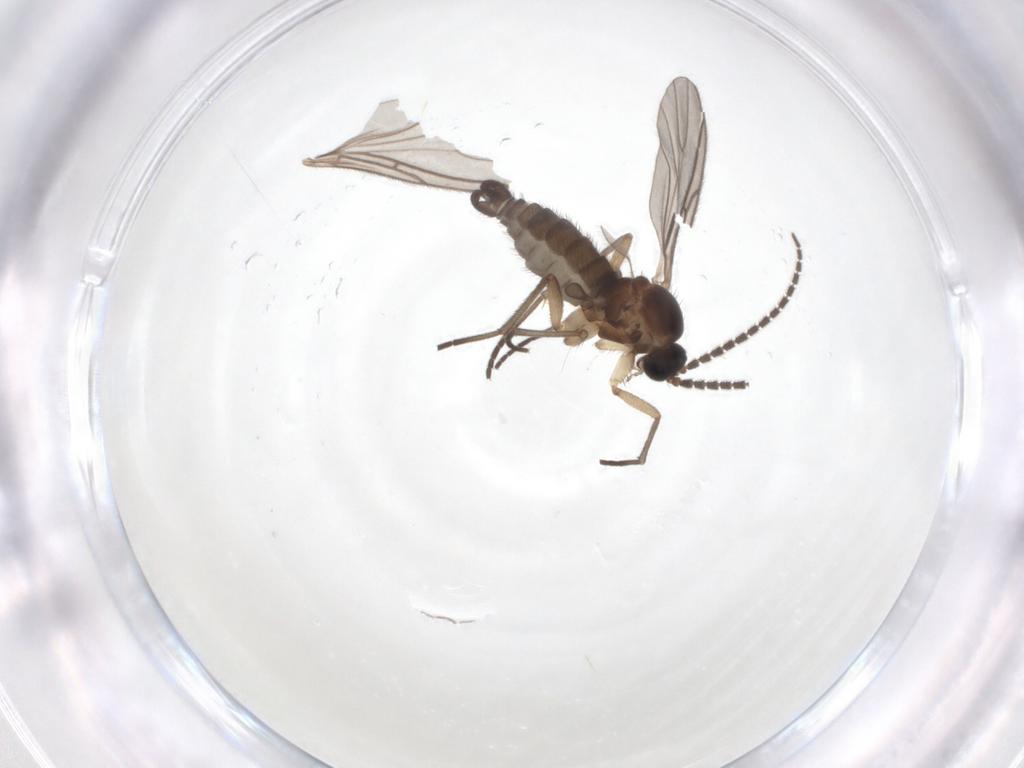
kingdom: Animalia
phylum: Arthropoda
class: Insecta
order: Diptera
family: Sciaridae
